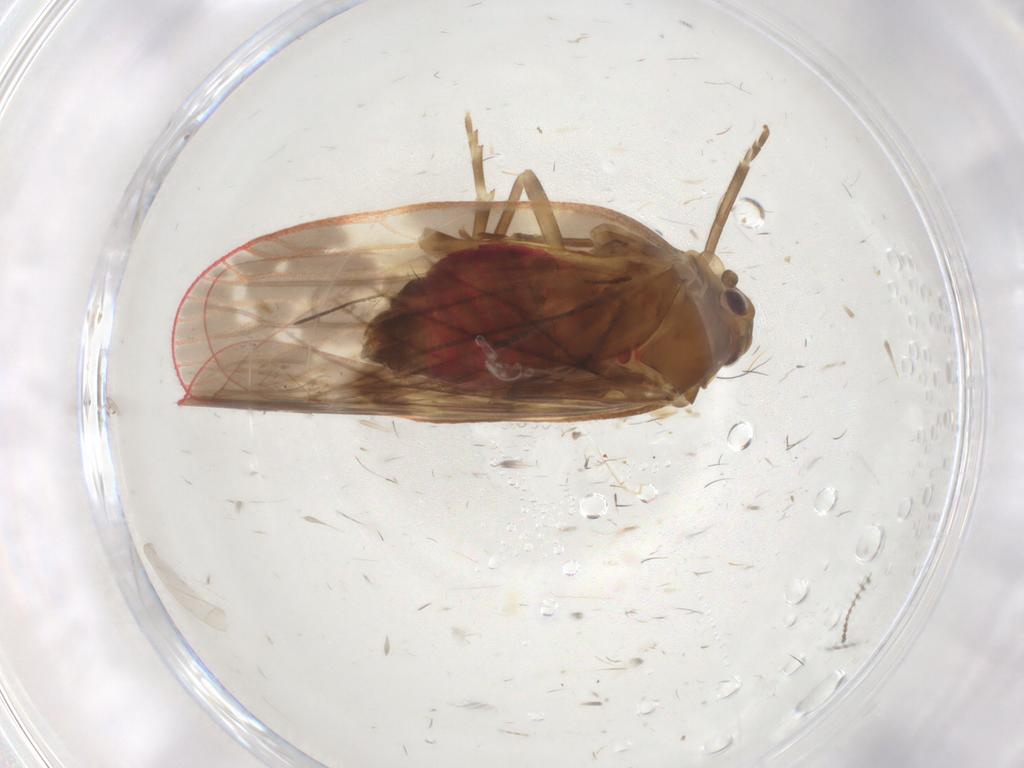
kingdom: Animalia
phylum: Arthropoda
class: Insecta
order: Hemiptera
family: Achilidae
